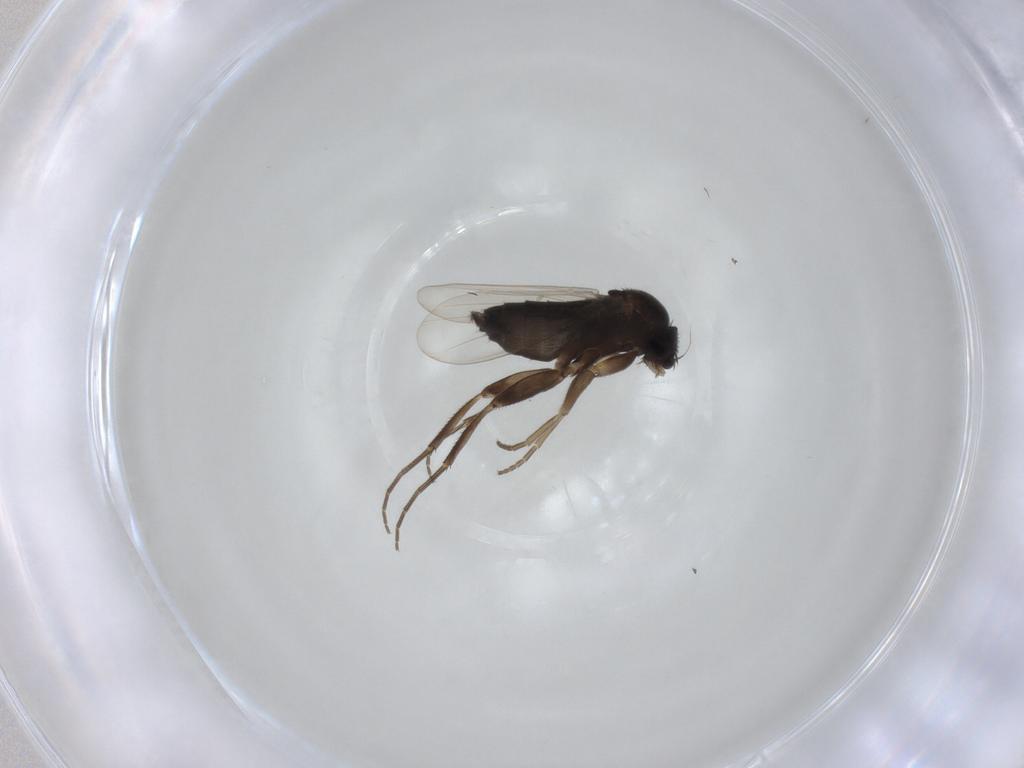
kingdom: Animalia
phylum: Arthropoda
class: Insecta
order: Diptera
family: Phoridae
